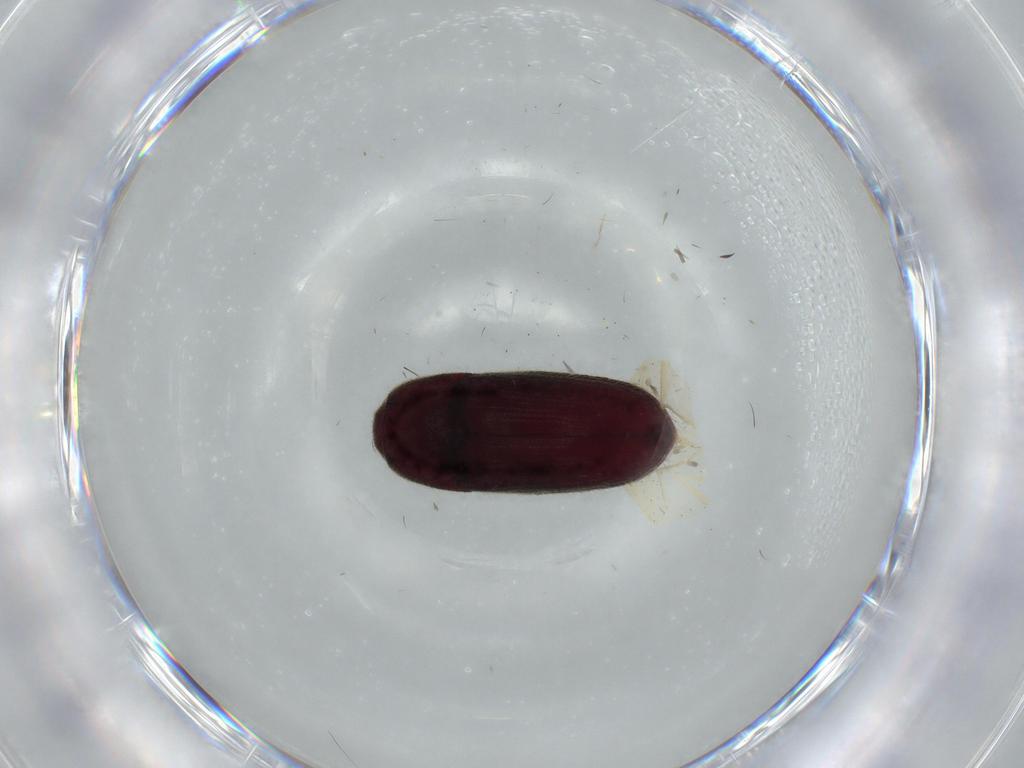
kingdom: Animalia
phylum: Arthropoda
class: Insecta
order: Coleoptera
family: Throscidae
